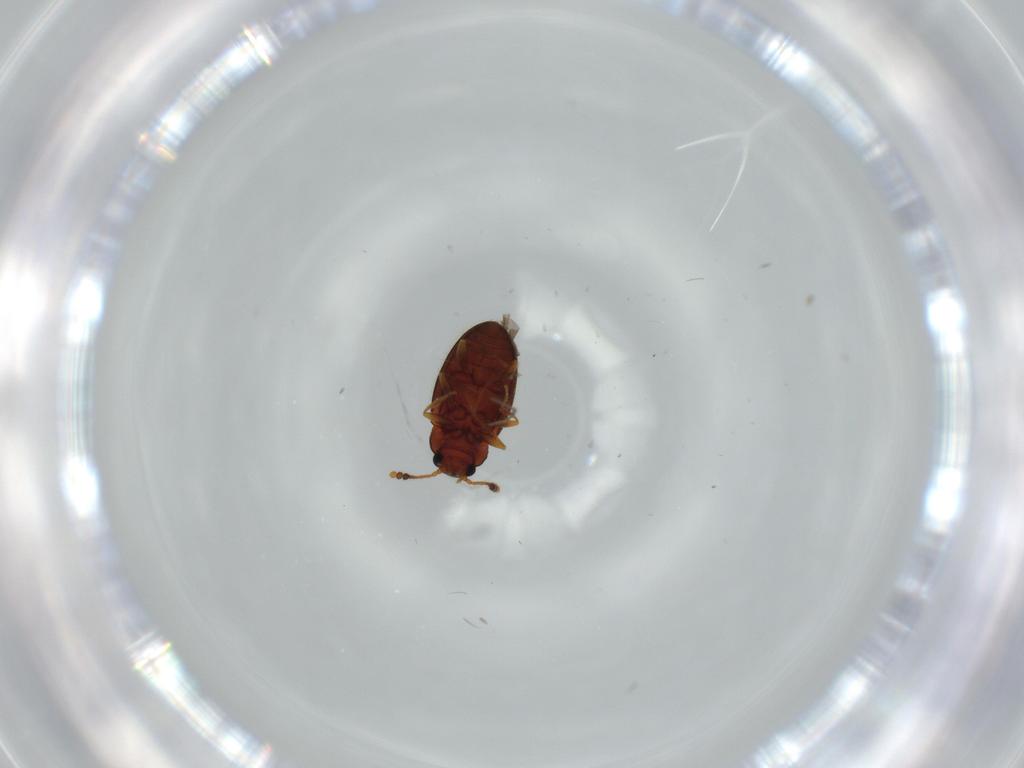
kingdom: Animalia
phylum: Arthropoda
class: Insecta
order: Coleoptera
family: Erotylidae
